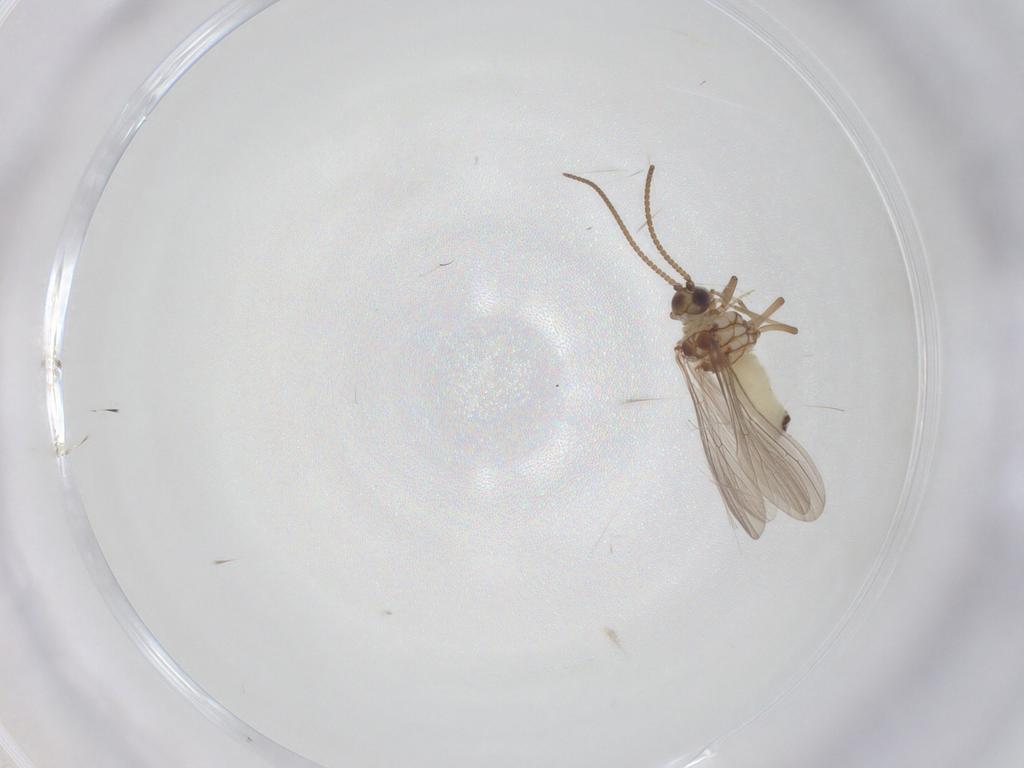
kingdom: Animalia
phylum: Arthropoda
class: Insecta
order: Neuroptera
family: Coniopterygidae
